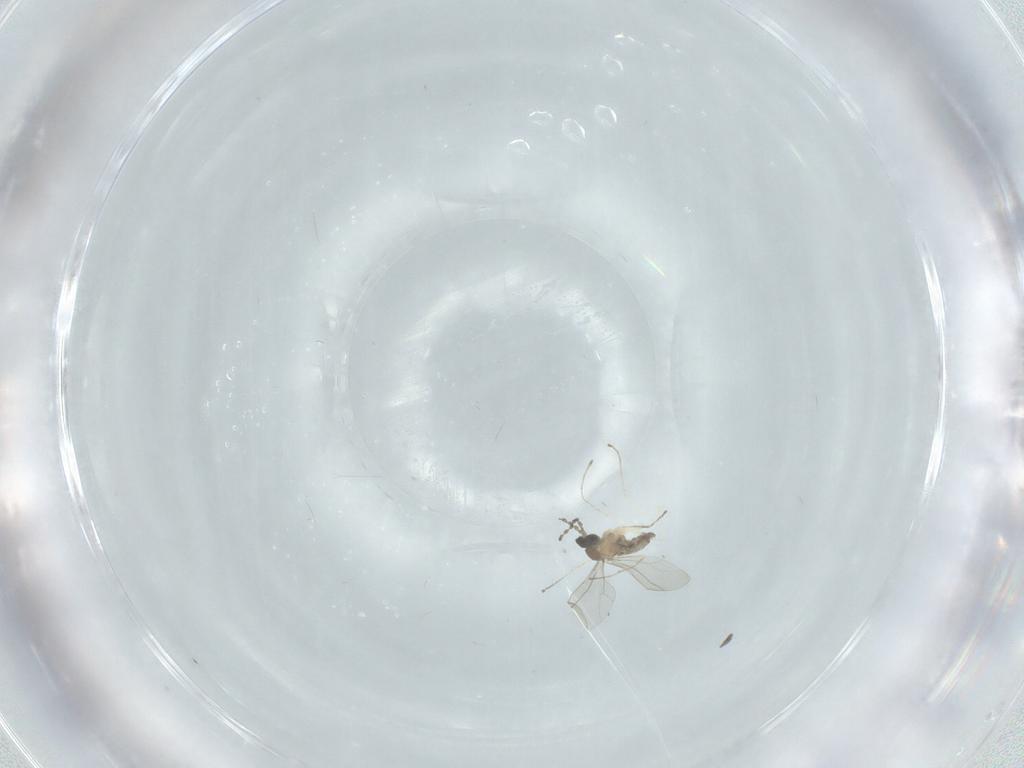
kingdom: Animalia
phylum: Arthropoda
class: Insecta
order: Diptera
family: Cecidomyiidae
